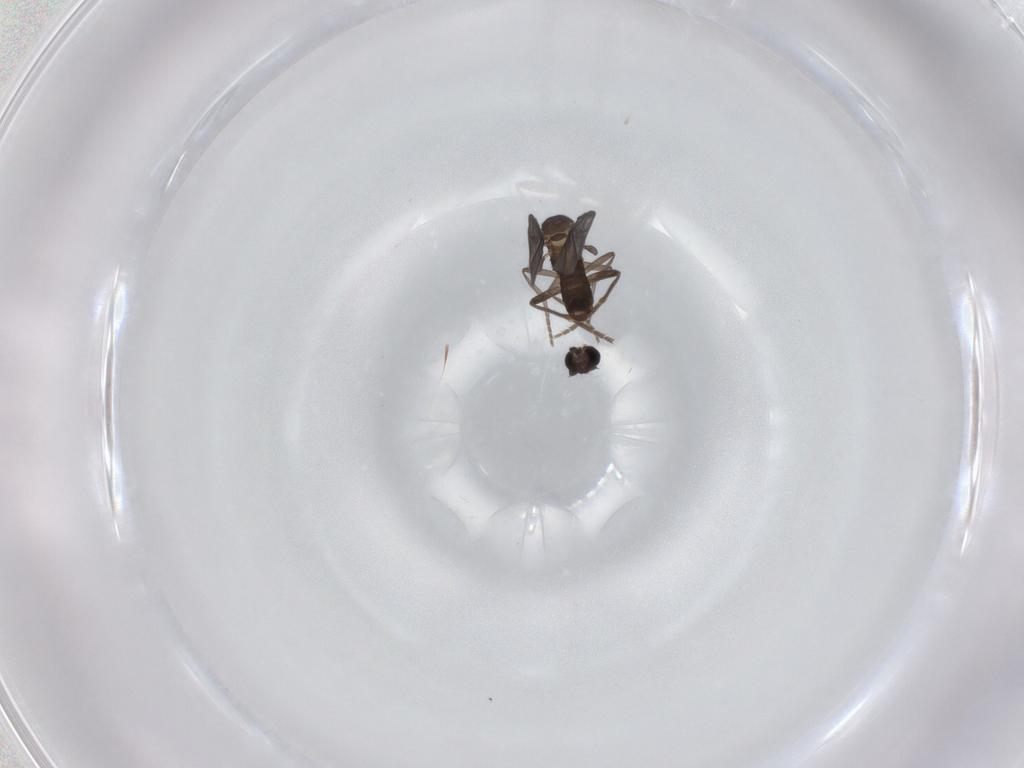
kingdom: Animalia
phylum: Arthropoda
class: Insecta
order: Diptera
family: Phoridae
